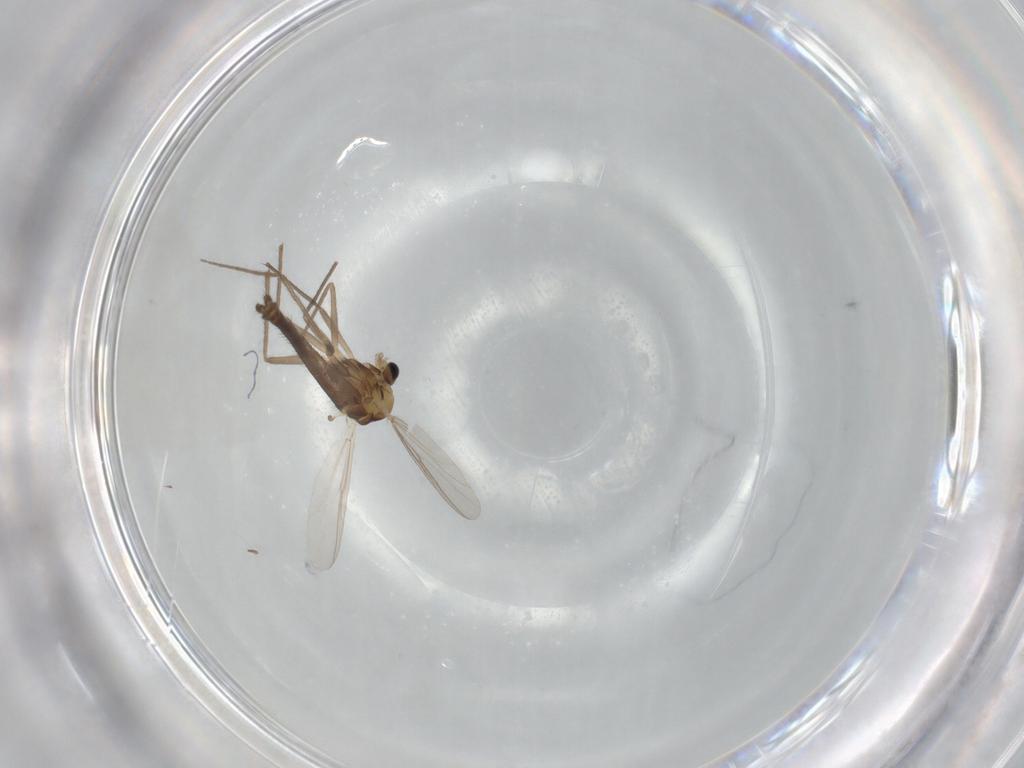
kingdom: Animalia
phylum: Arthropoda
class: Insecta
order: Diptera
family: Chironomidae
